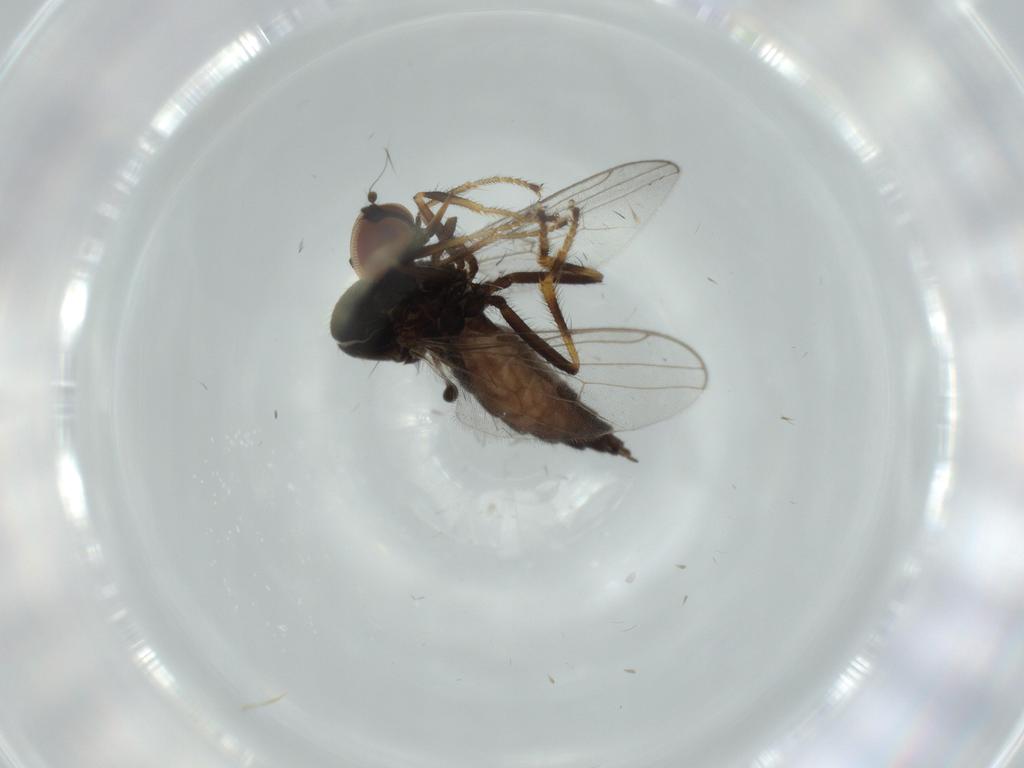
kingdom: Animalia
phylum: Arthropoda
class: Insecta
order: Diptera
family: Hybotidae
